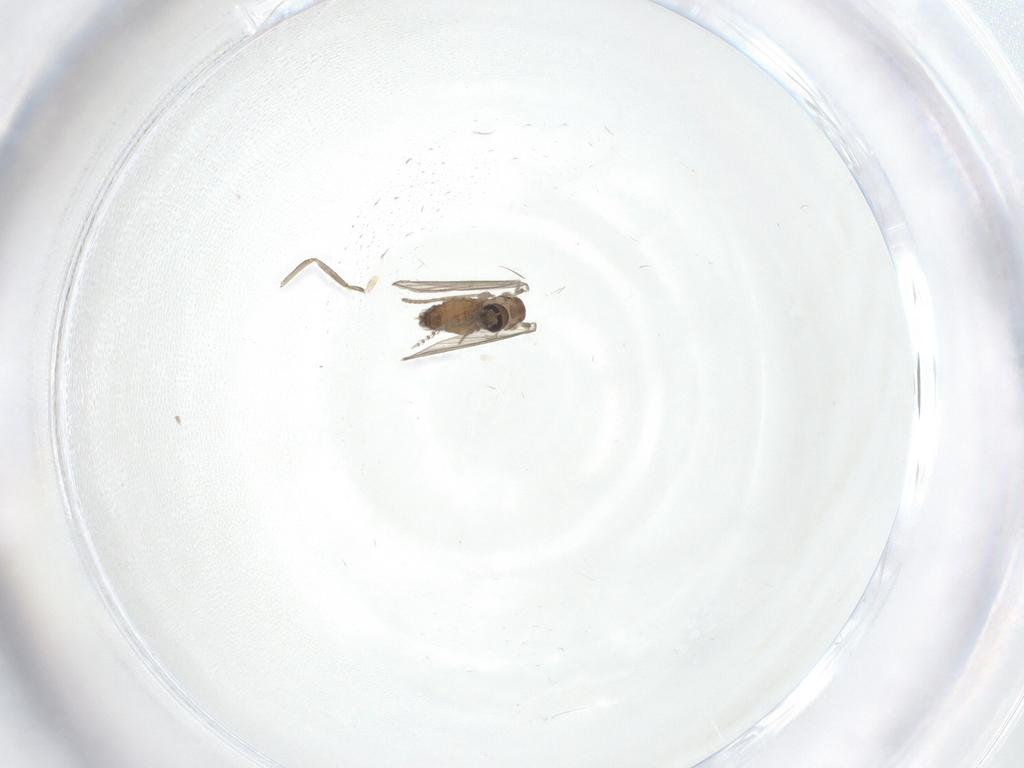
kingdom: Animalia
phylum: Arthropoda
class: Insecta
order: Diptera
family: Psychodidae
